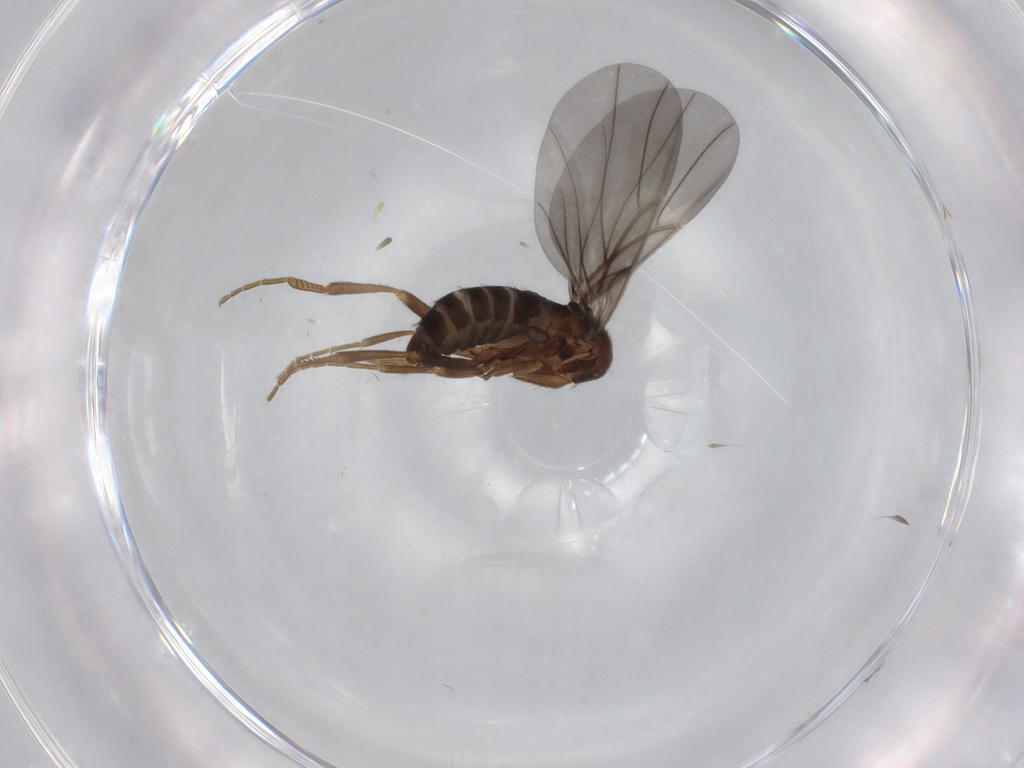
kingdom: Animalia
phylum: Arthropoda
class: Insecta
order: Diptera
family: Phoridae
